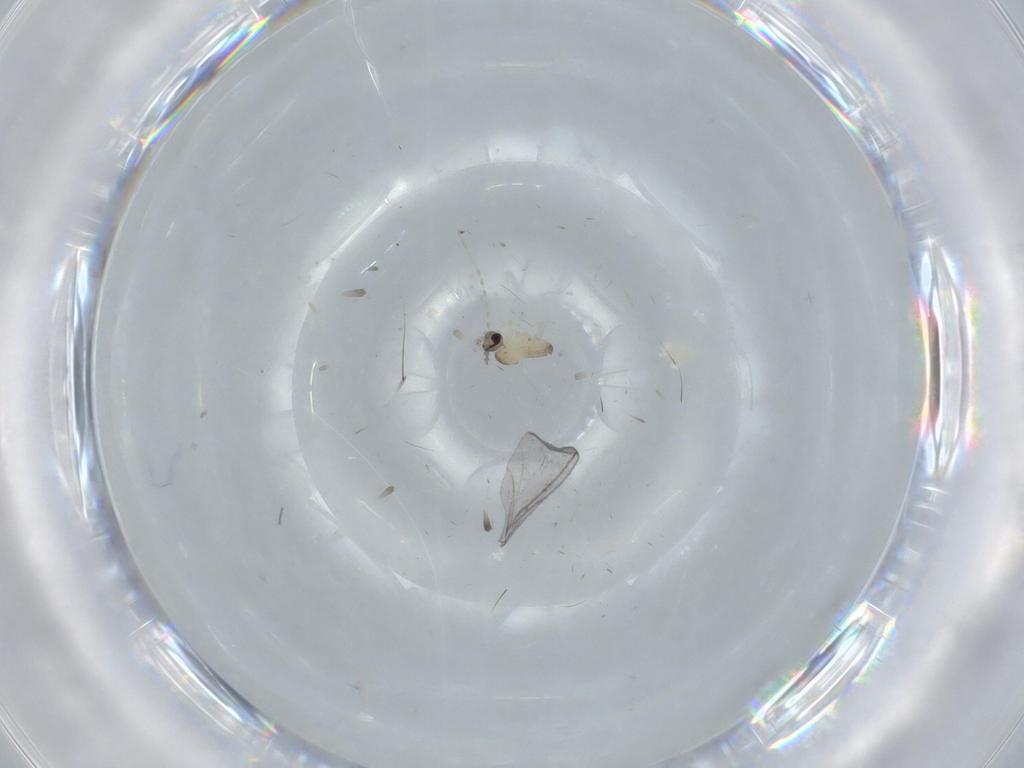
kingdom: Animalia
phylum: Arthropoda
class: Insecta
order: Diptera
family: Cecidomyiidae
